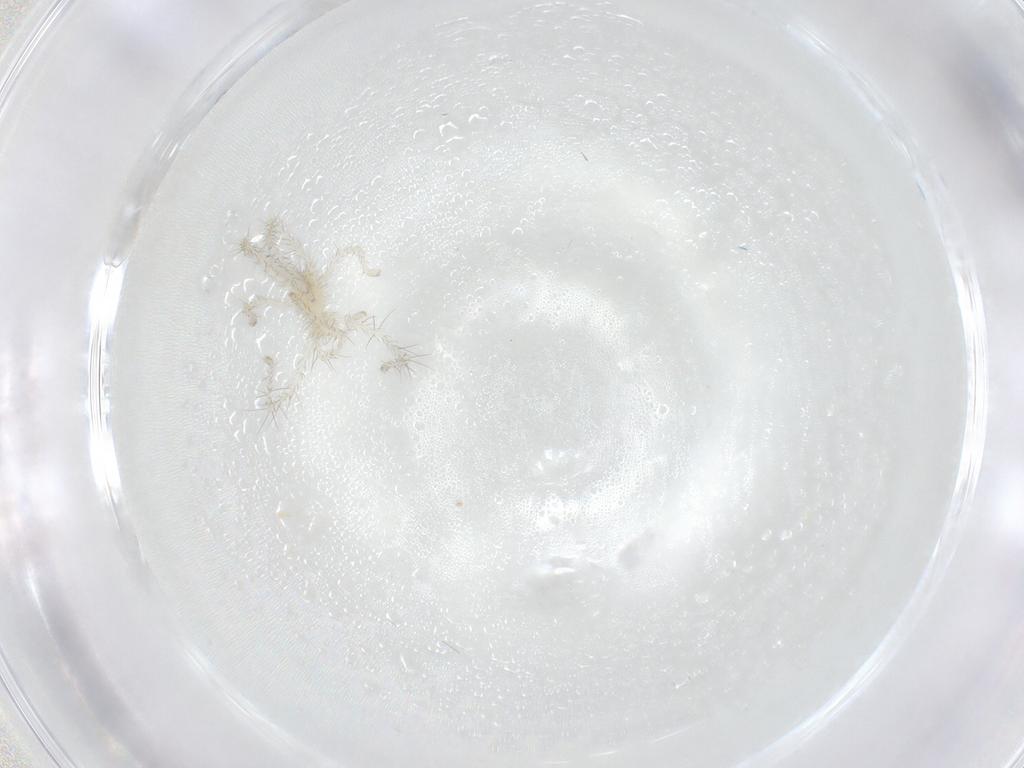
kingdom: Animalia
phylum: Arthropoda
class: Arachnida
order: Trombidiformes
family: Erythraeidae
